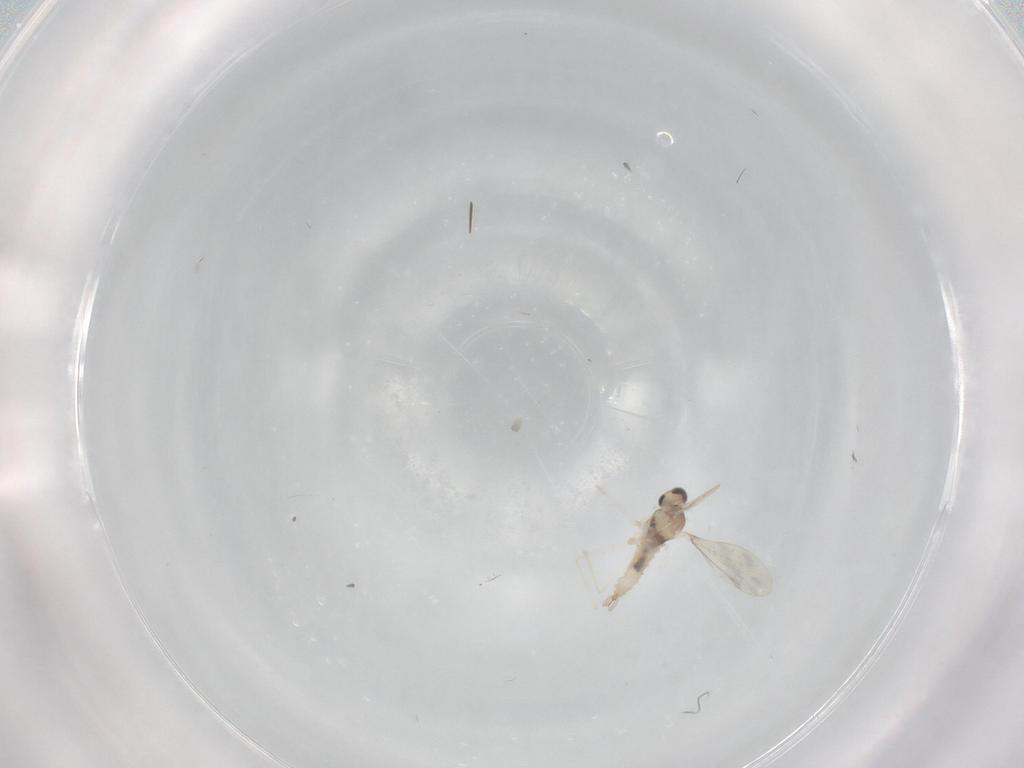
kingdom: Animalia
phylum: Arthropoda
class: Insecta
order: Diptera
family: Cecidomyiidae
